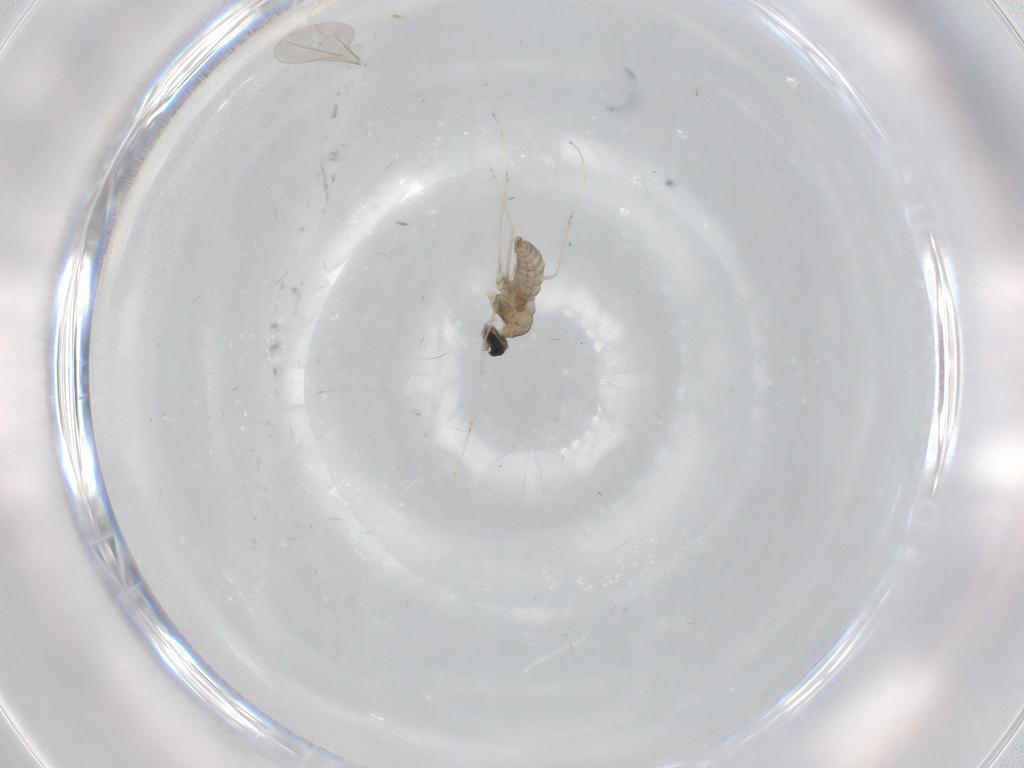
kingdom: Animalia
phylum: Arthropoda
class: Insecta
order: Diptera
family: Cecidomyiidae
